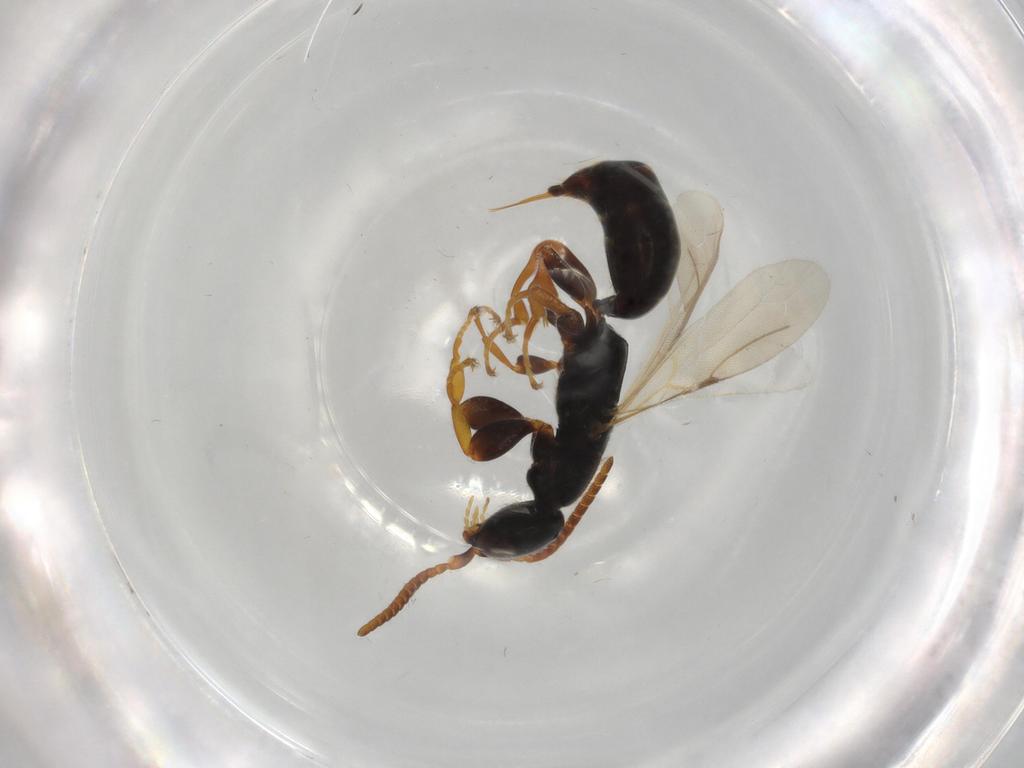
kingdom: Animalia
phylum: Arthropoda
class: Insecta
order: Hymenoptera
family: Bethylidae
